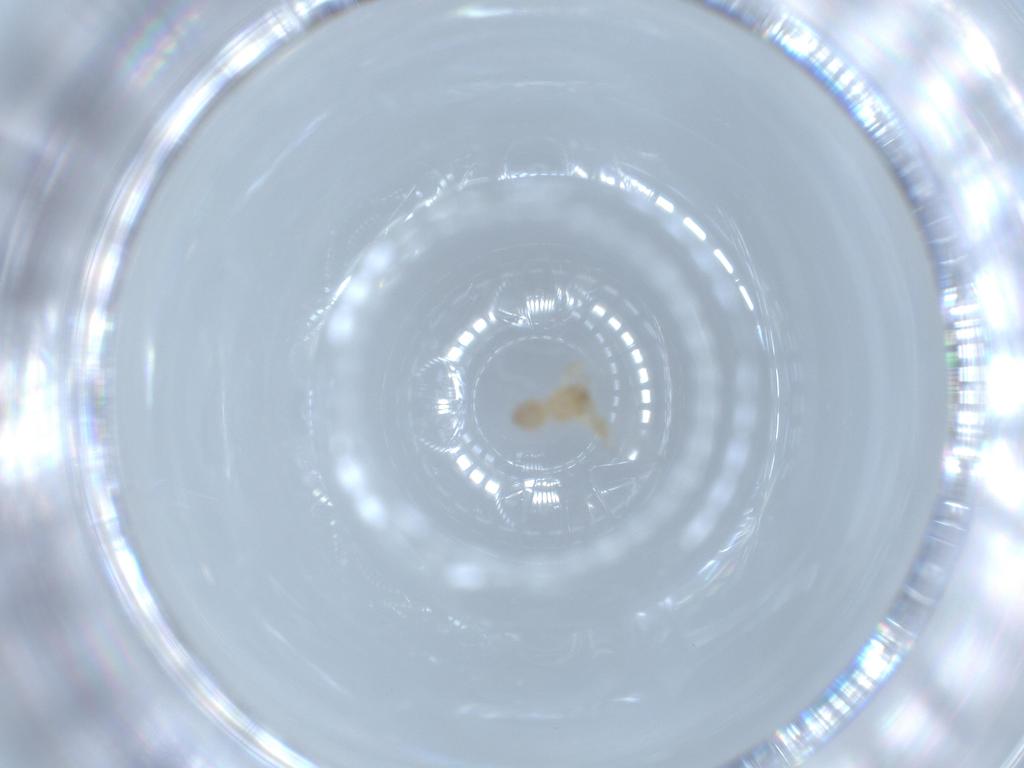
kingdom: Animalia
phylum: Arthropoda
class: Arachnida
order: Araneae
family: Oonopidae
